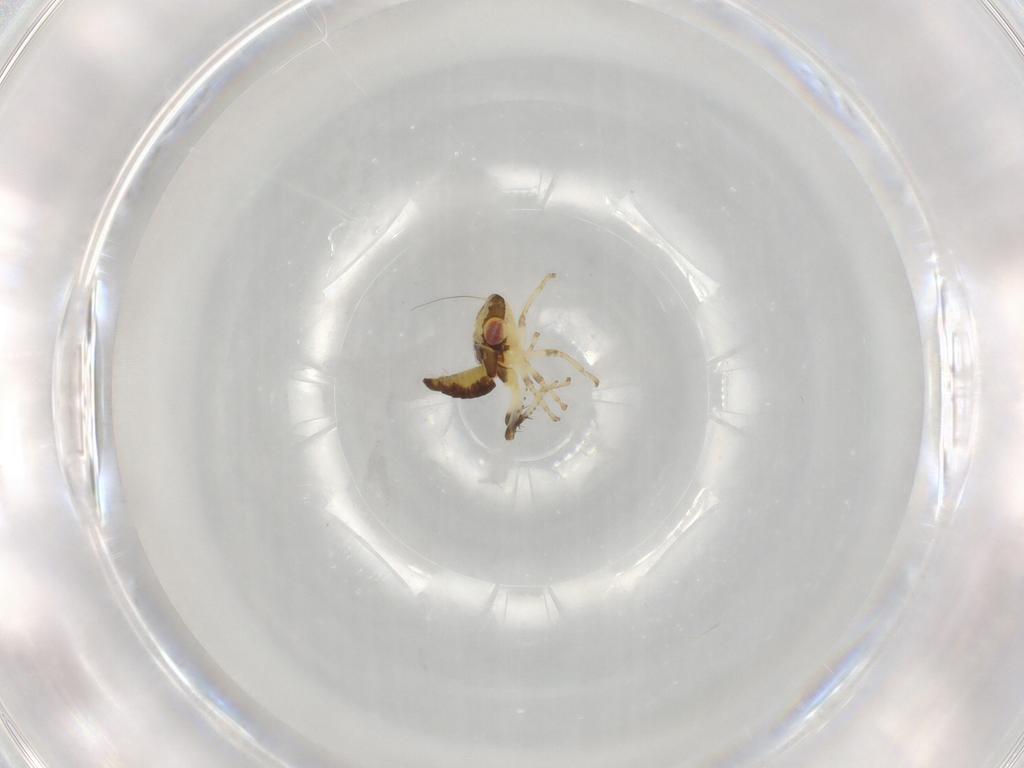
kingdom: Animalia
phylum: Arthropoda
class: Insecta
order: Hemiptera
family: Cicadellidae
